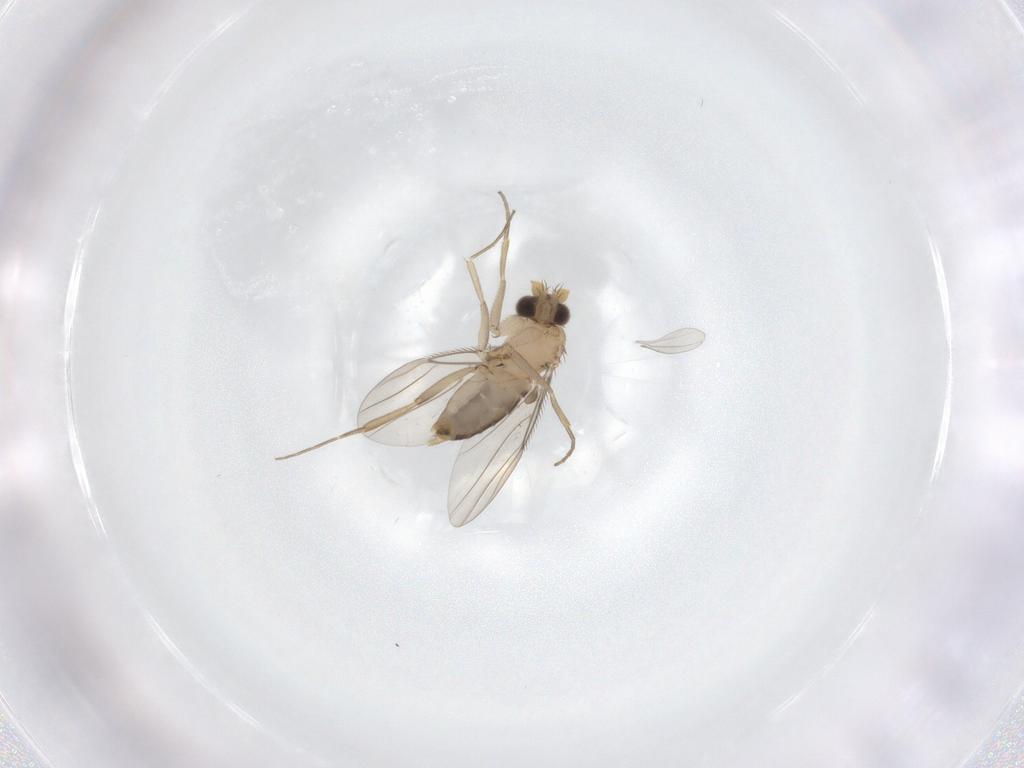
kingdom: Animalia
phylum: Arthropoda
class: Insecta
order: Diptera
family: Phoridae
